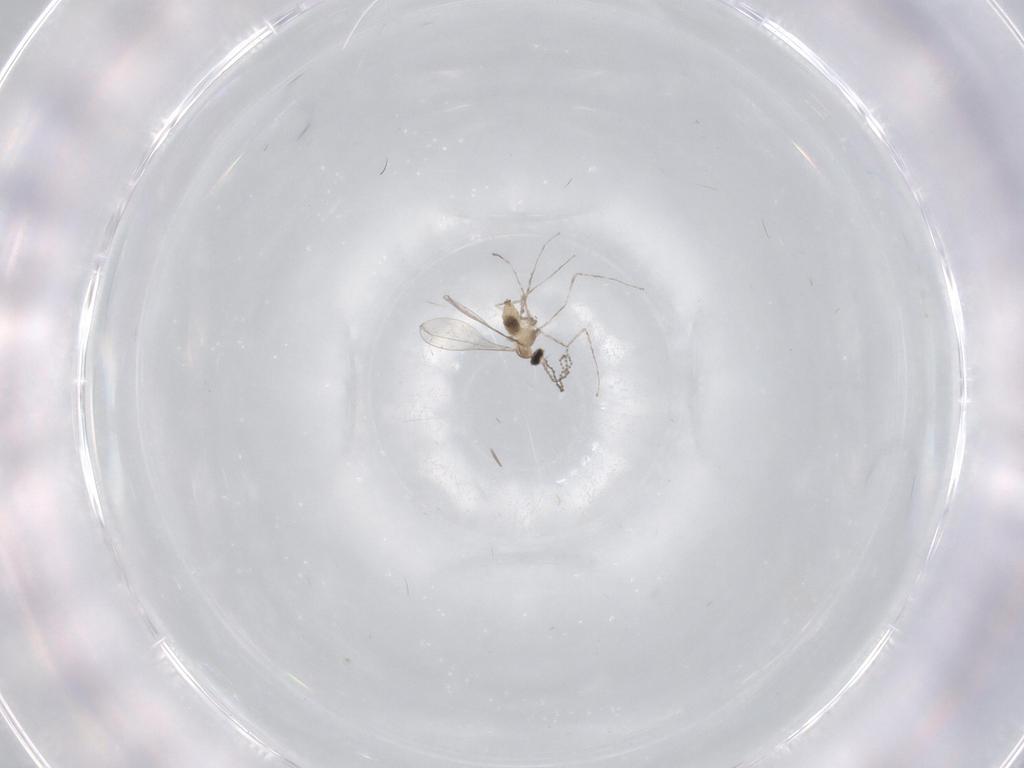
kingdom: Animalia
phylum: Arthropoda
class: Insecta
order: Diptera
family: Cecidomyiidae
